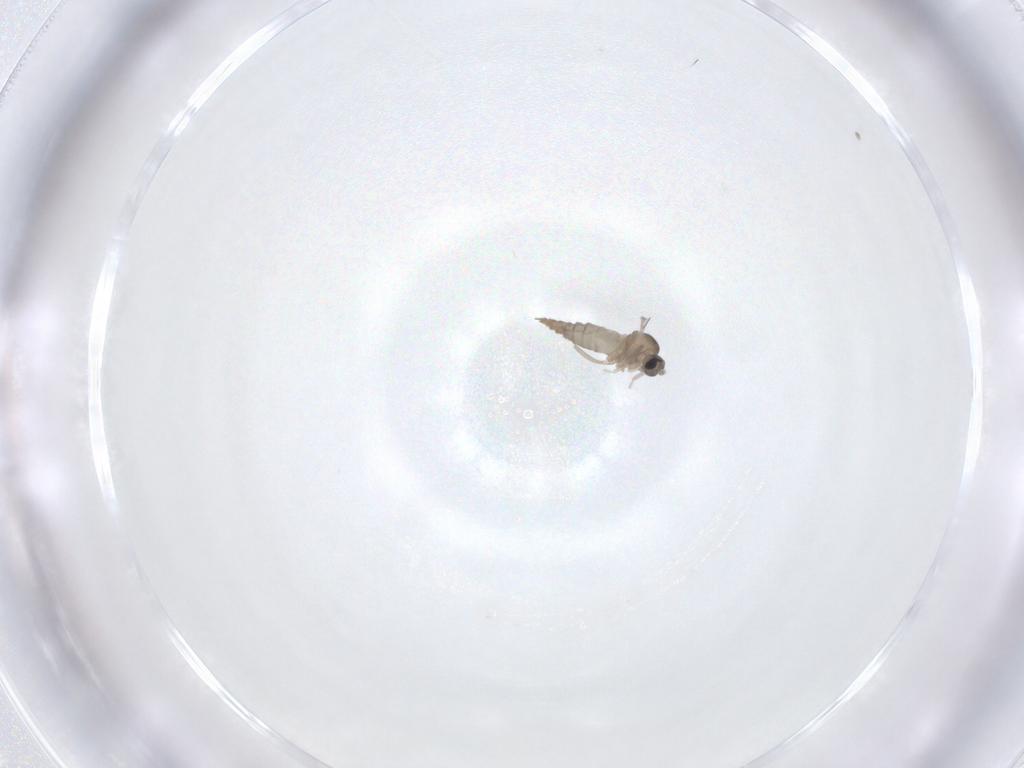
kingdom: Animalia
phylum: Arthropoda
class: Insecta
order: Diptera
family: Cecidomyiidae
